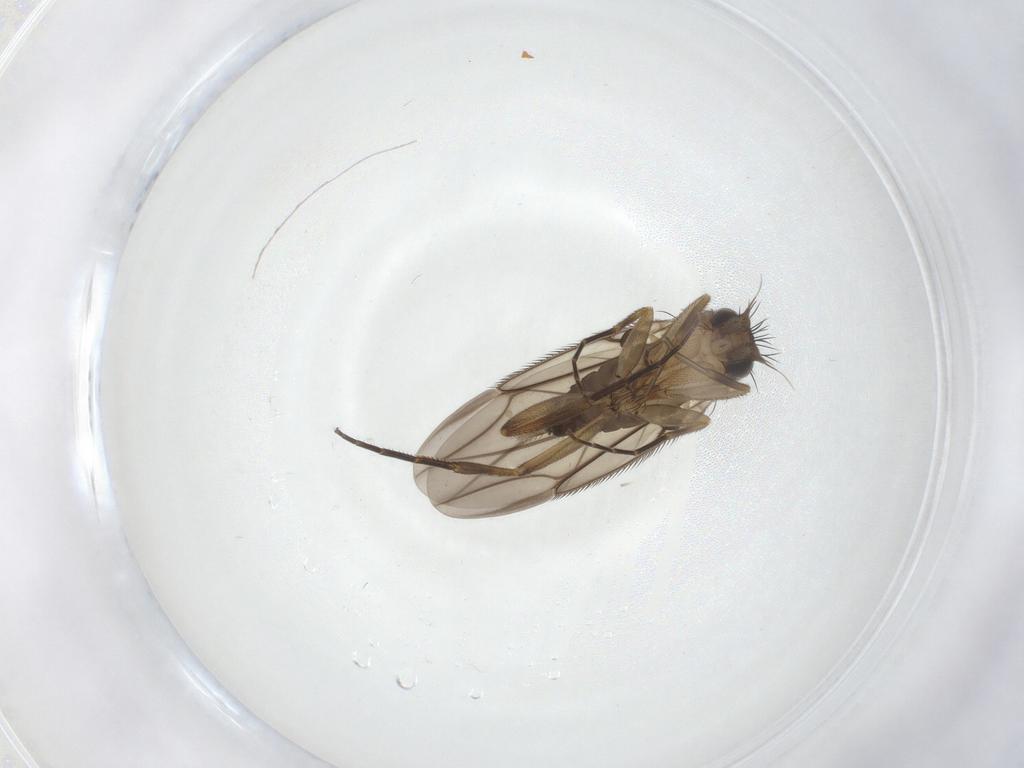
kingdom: Animalia
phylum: Arthropoda
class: Insecta
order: Diptera
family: Phoridae
